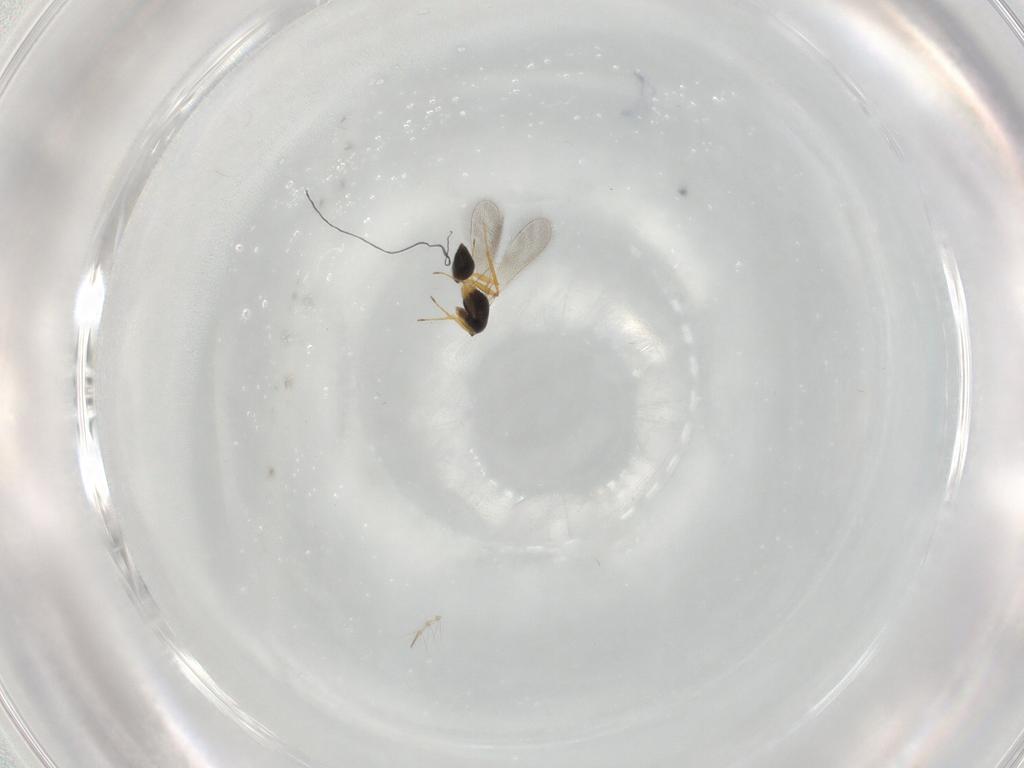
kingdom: Animalia
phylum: Arthropoda
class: Insecta
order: Hymenoptera
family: Mymaridae
